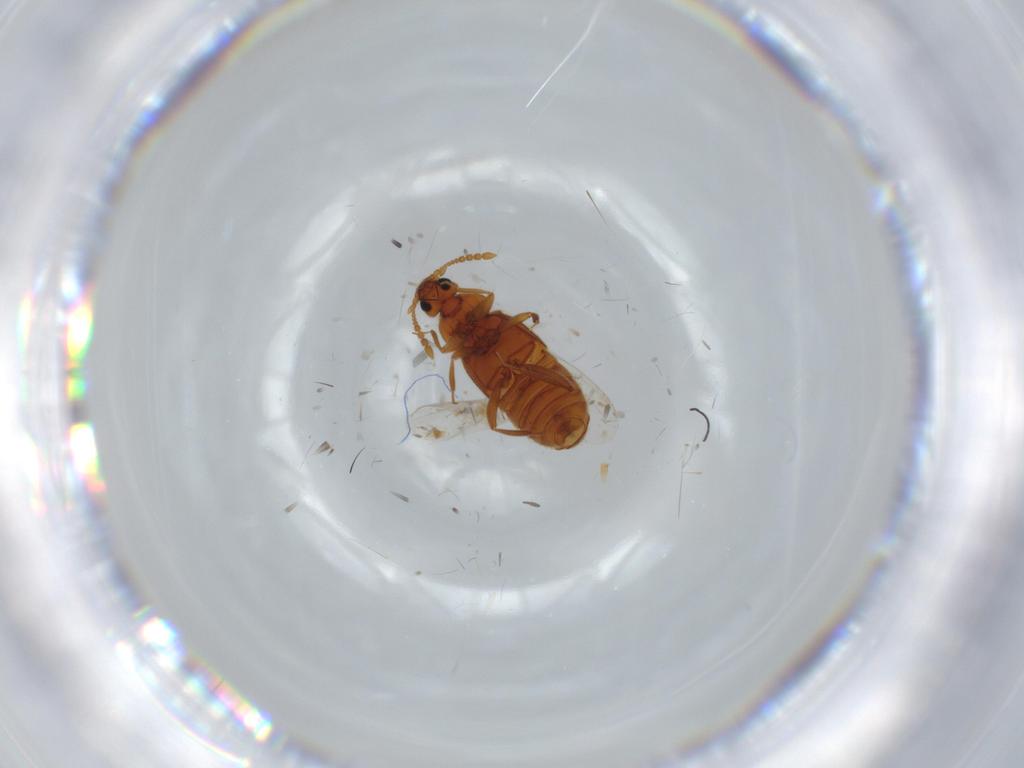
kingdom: Animalia
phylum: Arthropoda
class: Insecta
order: Coleoptera
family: Staphylinidae
